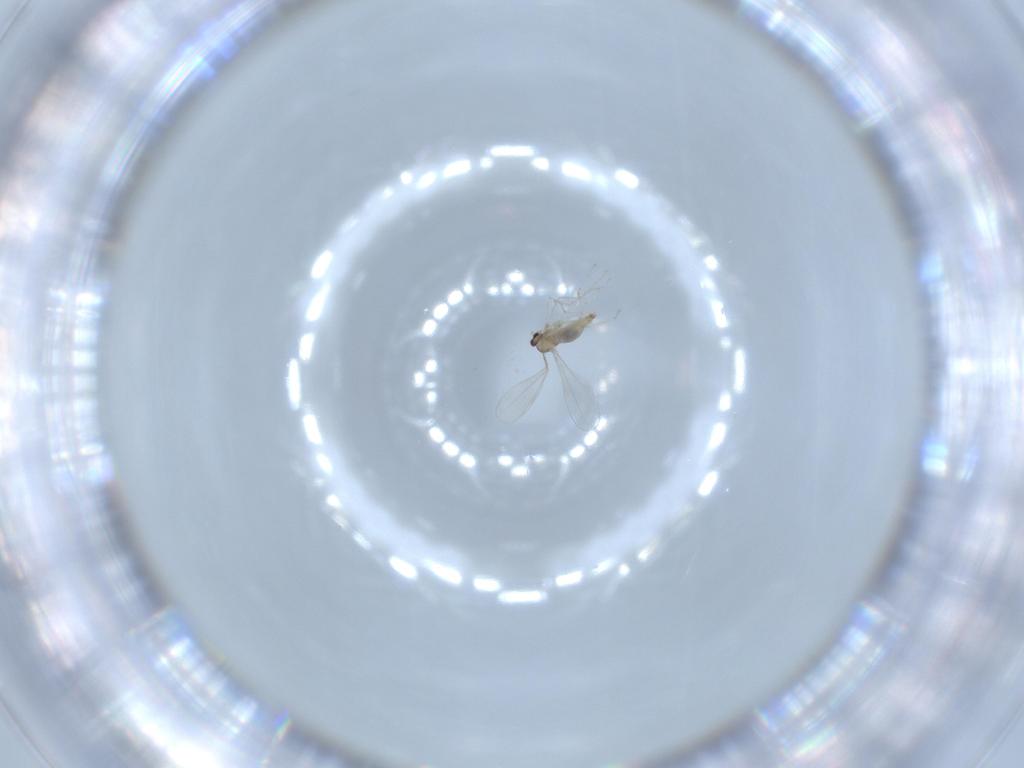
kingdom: Animalia
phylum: Arthropoda
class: Insecta
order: Diptera
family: Cecidomyiidae
